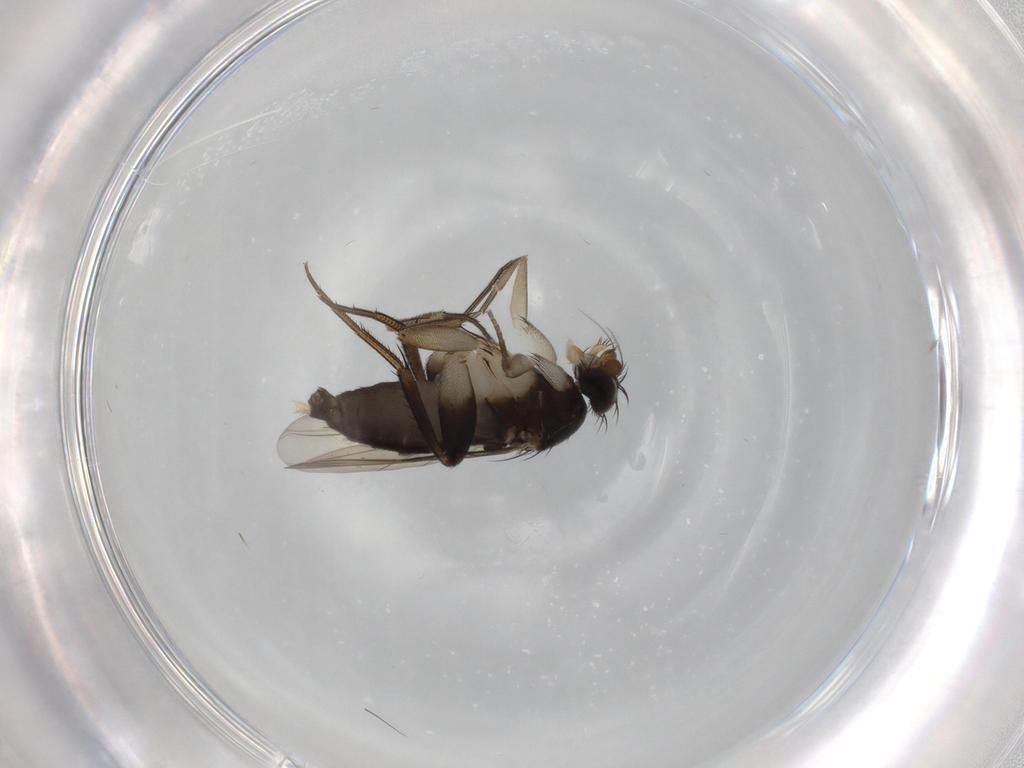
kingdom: Animalia
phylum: Arthropoda
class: Insecta
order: Diptera
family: Phoridae
